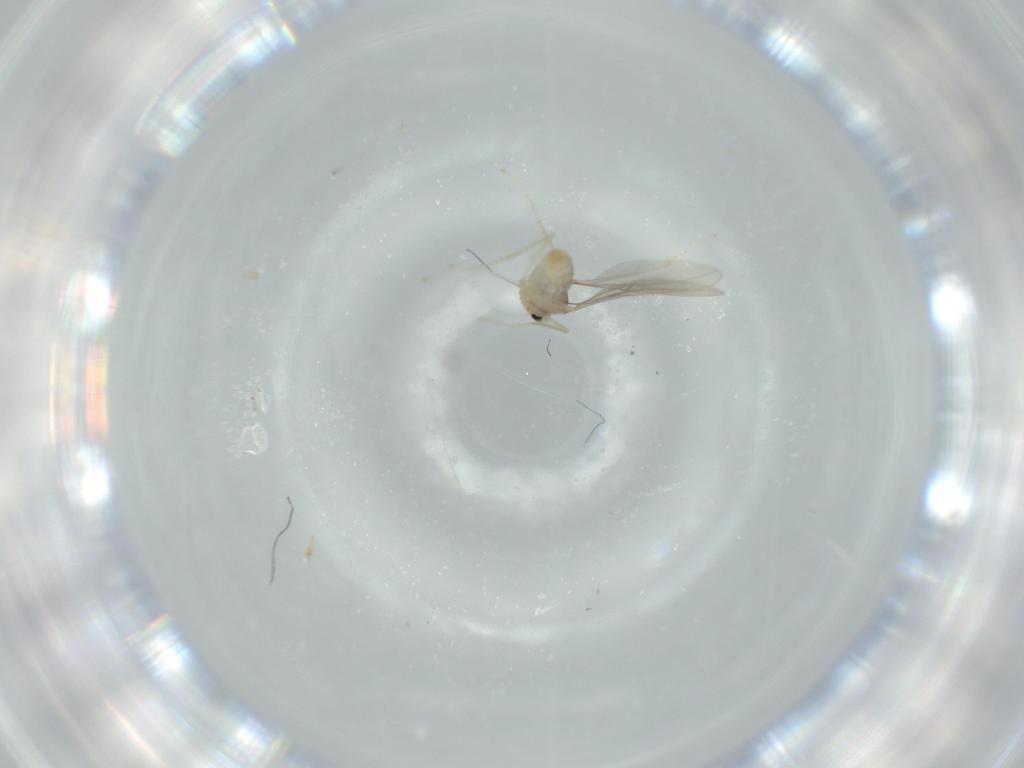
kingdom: Animalia
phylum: Arthropoda
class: Insecta
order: Diptera
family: Cecidomyiidae
